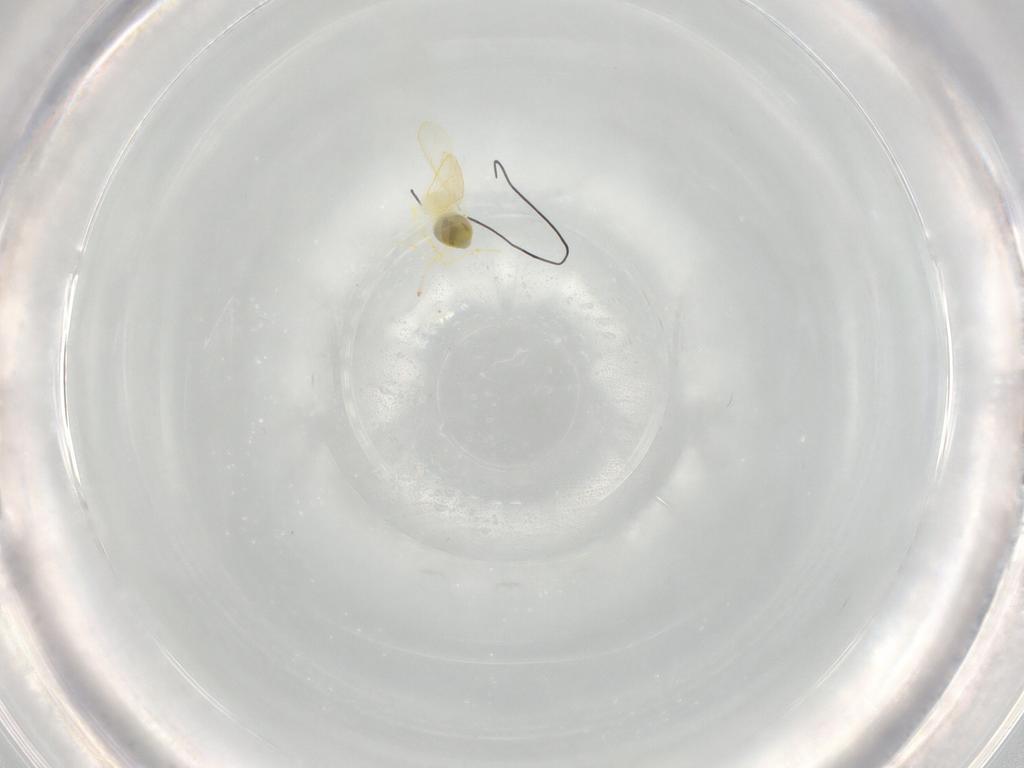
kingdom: Animalia
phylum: Arthropoda
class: Insecta
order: Hemiptera
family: Aleyrodidae
